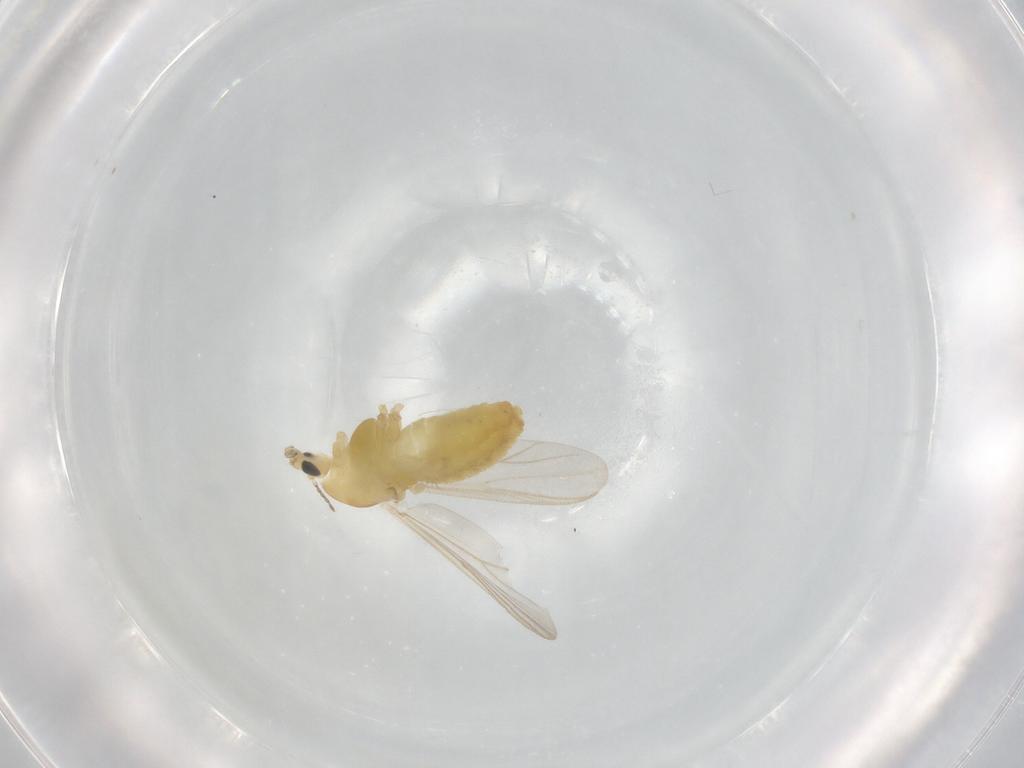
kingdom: Animalia
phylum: Arthropoda
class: Insecta
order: Diptera
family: Chironomidae
